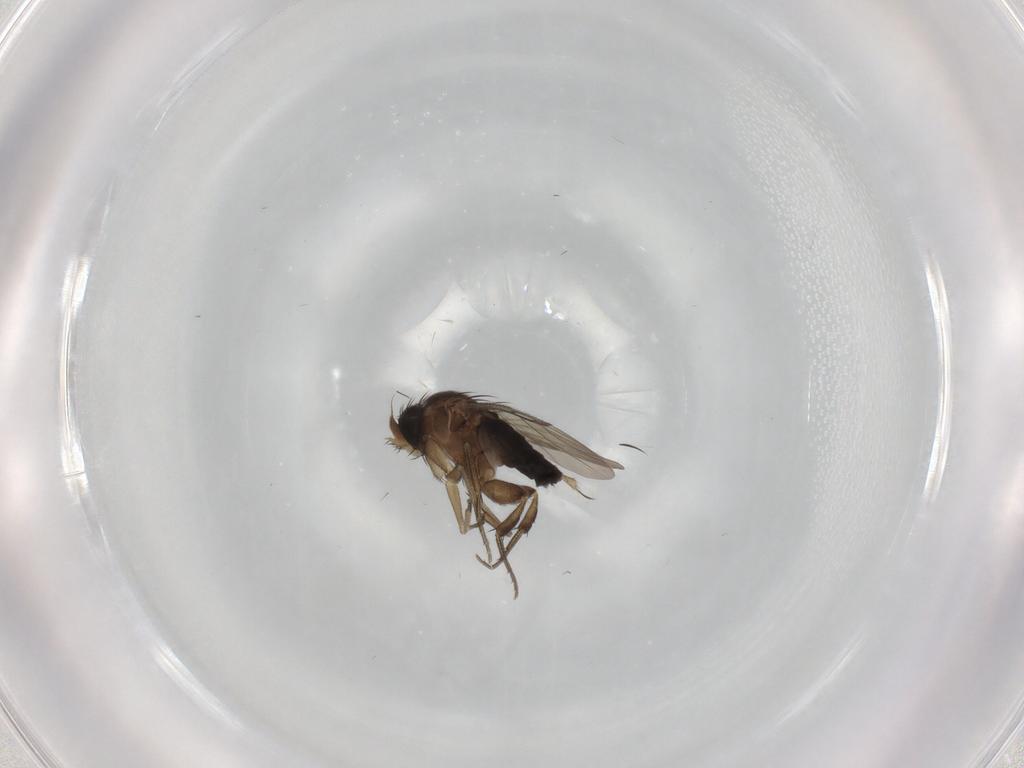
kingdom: Animalia
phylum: Arthropoda
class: Insecta
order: Diptera
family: Phoridae
